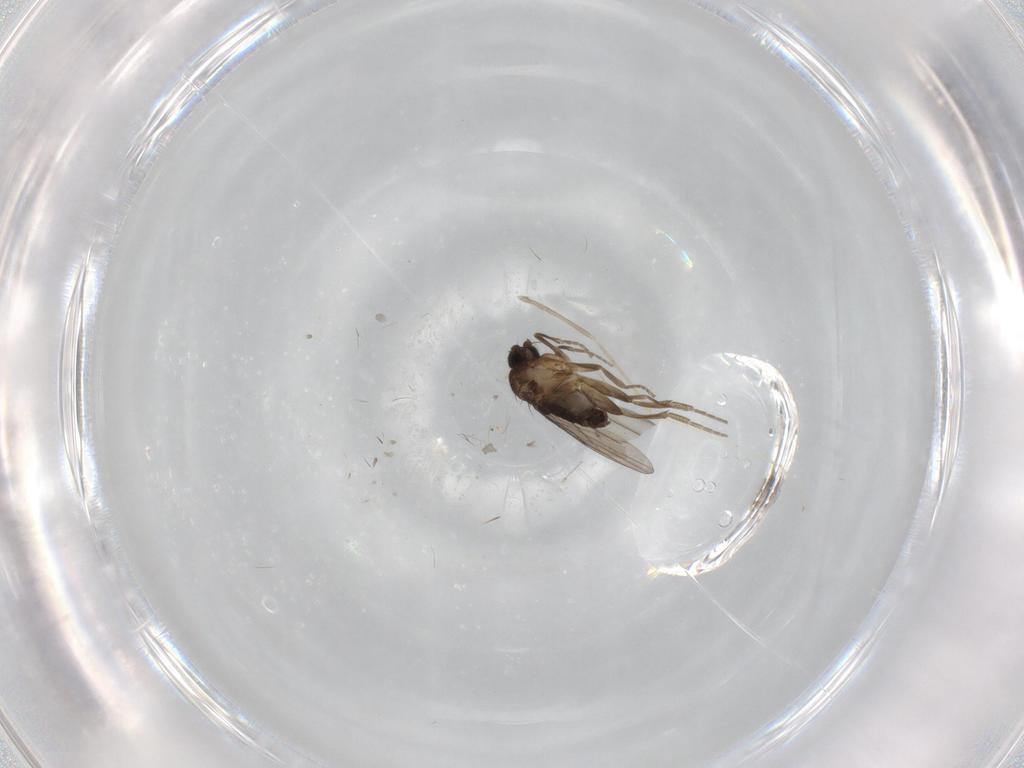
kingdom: Animalia
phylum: Arthropoda
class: Insecta
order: Diptera
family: Phoridae
